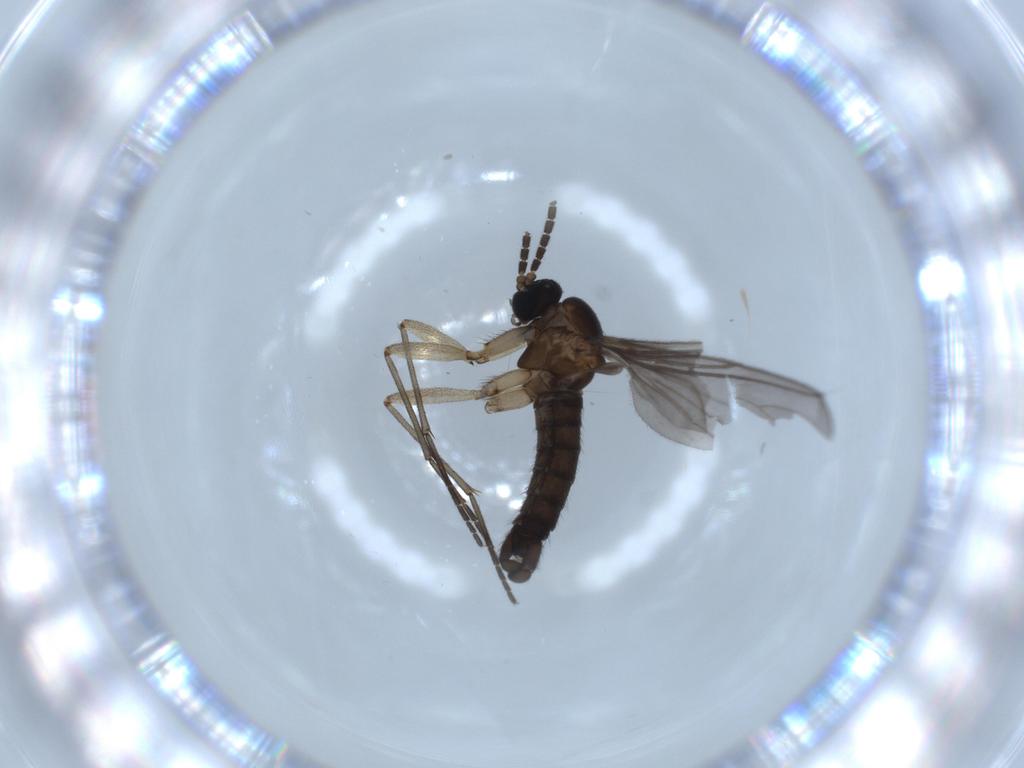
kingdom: Animalia
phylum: Arthropoda
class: Insecta
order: Diptera
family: Sciaridae
